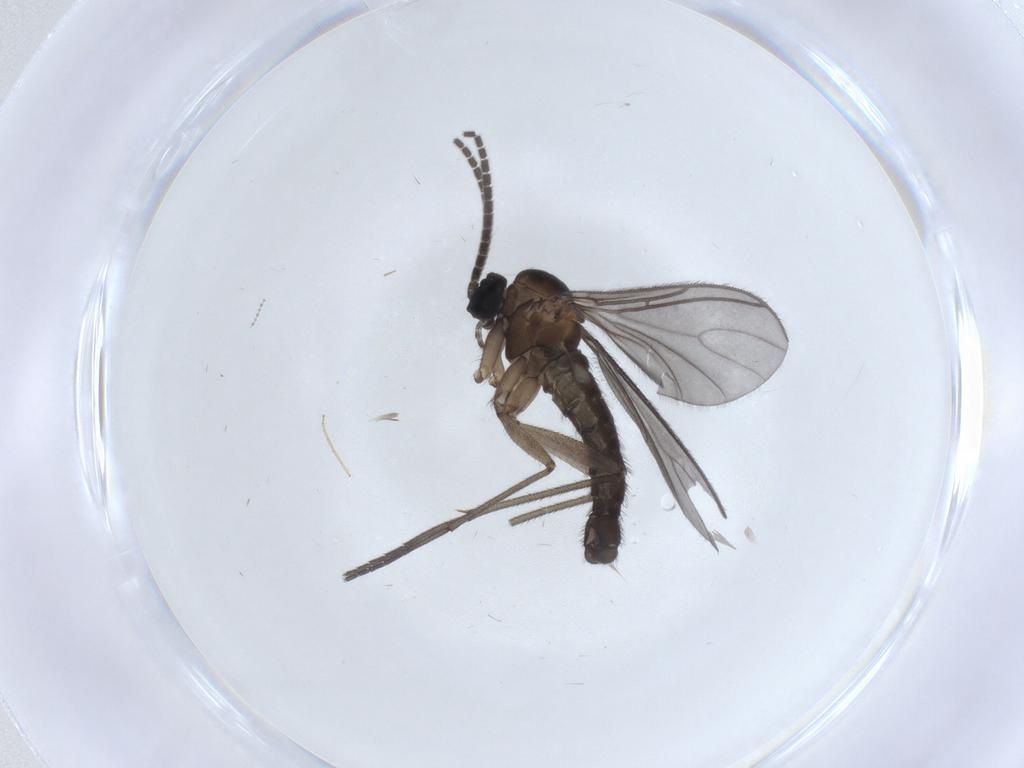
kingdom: Animalia
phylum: Arthropoda
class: Insecta
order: Diptera
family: Sciaridae
